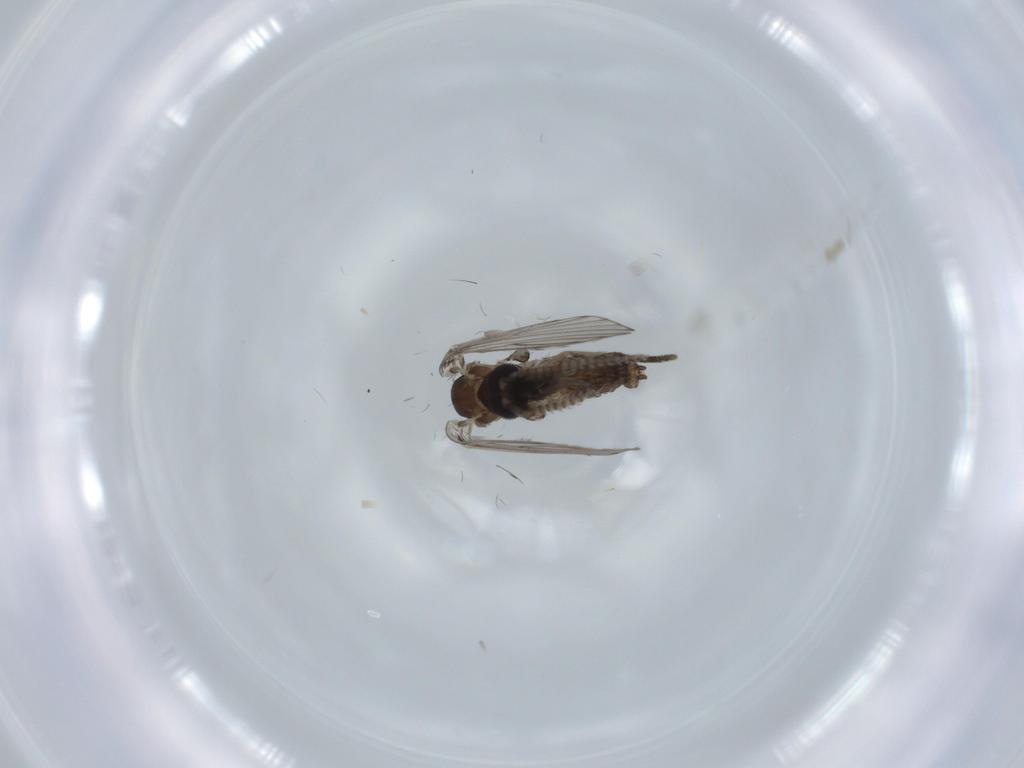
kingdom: Animalia
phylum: Arthropoda
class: Insecta
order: Diptera
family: Psychodidae
